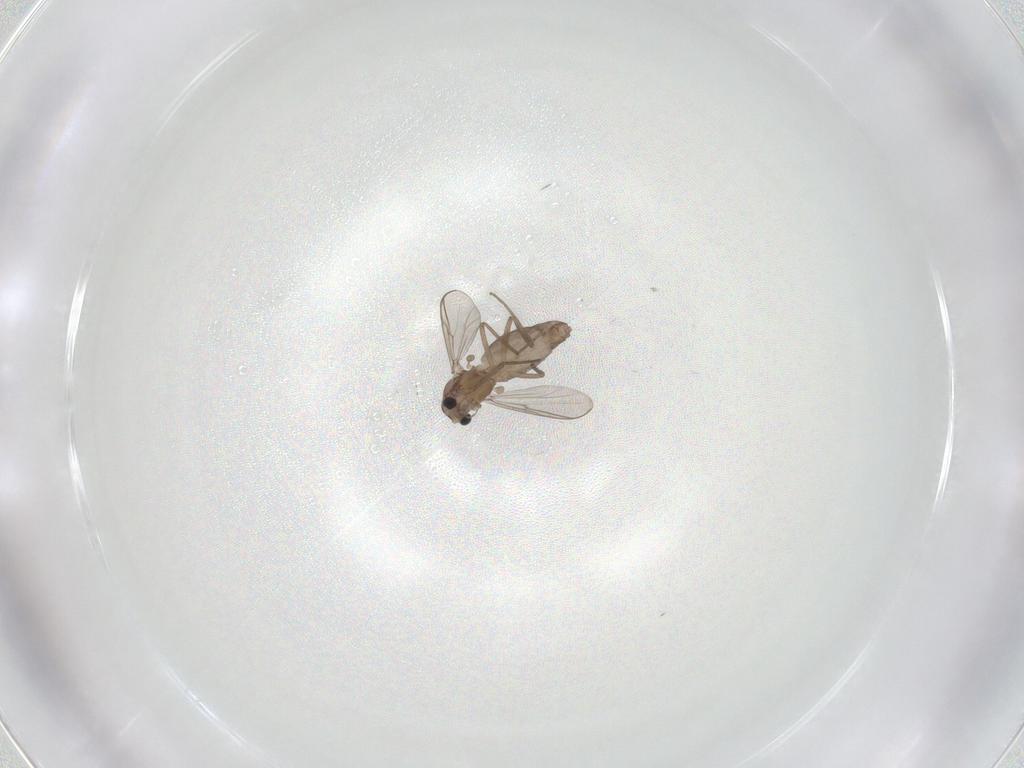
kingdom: Animalia
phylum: Arthropoda
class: Insecta
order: Diptera
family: Chironomidae
